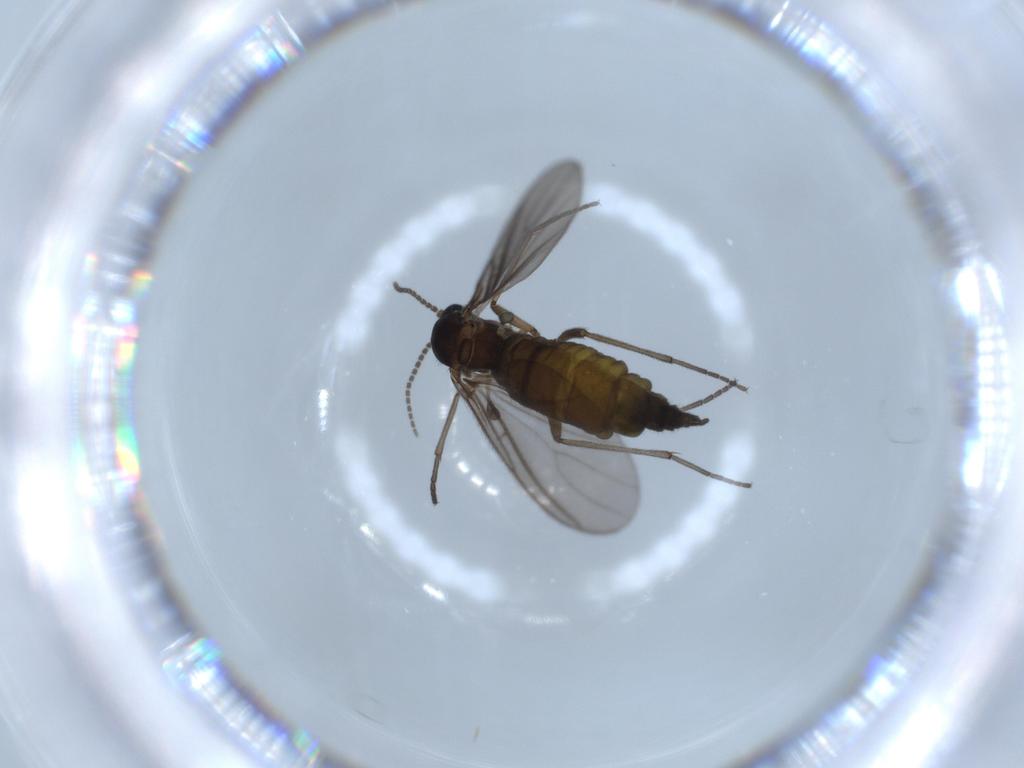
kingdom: Animalia
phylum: Arthropoda
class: Insecta
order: Diptera
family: Sciaridae
